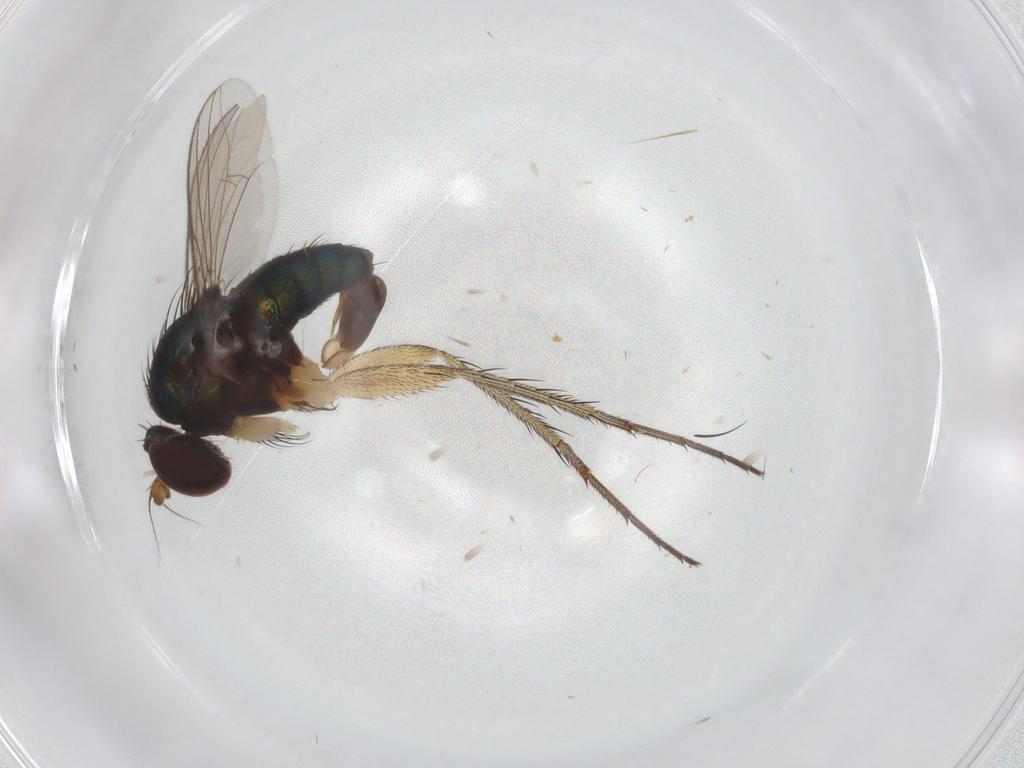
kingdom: Animalia
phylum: Arthropoda
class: Insecta
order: Diptera
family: Dolichopodidae
